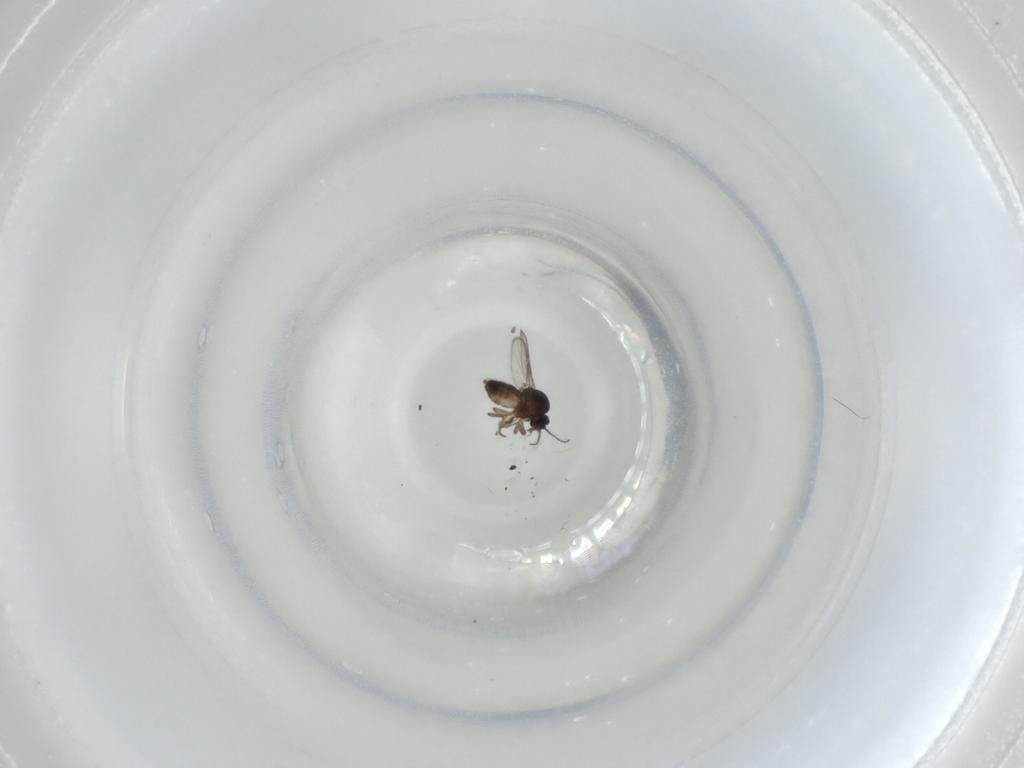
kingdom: Animalia
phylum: Arthropoda
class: Insecta
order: Diptera
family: Ceratopogonidae
